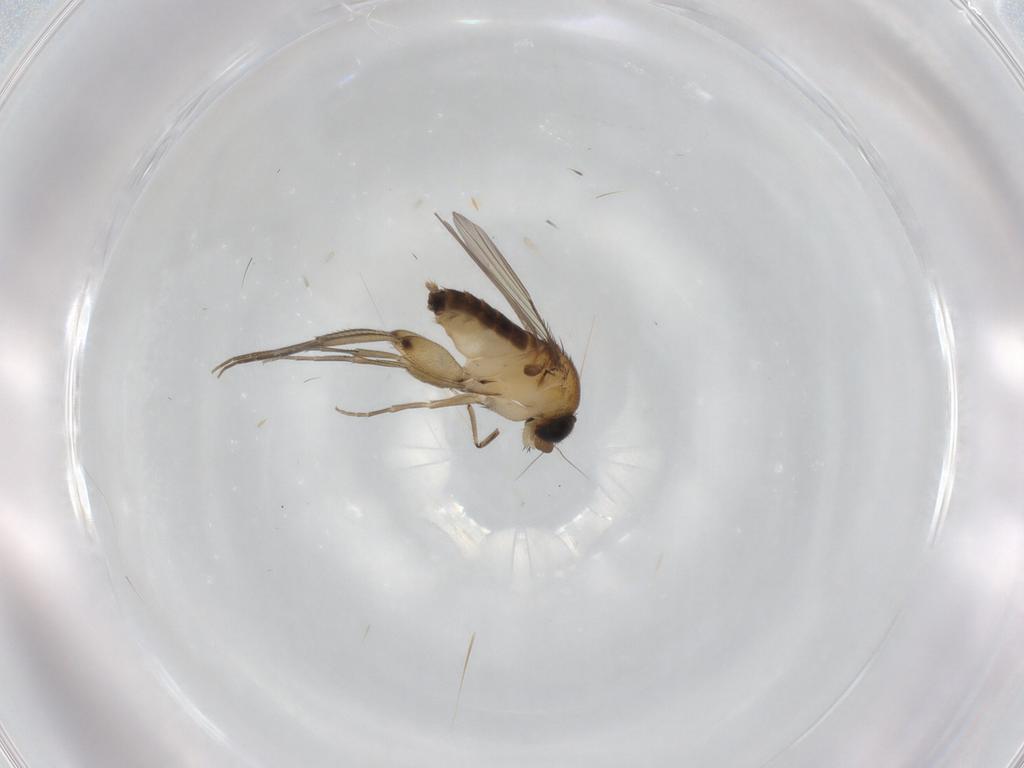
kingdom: Animalia
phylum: Arthropoda
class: Insecta
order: Diptera
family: Phoridae
